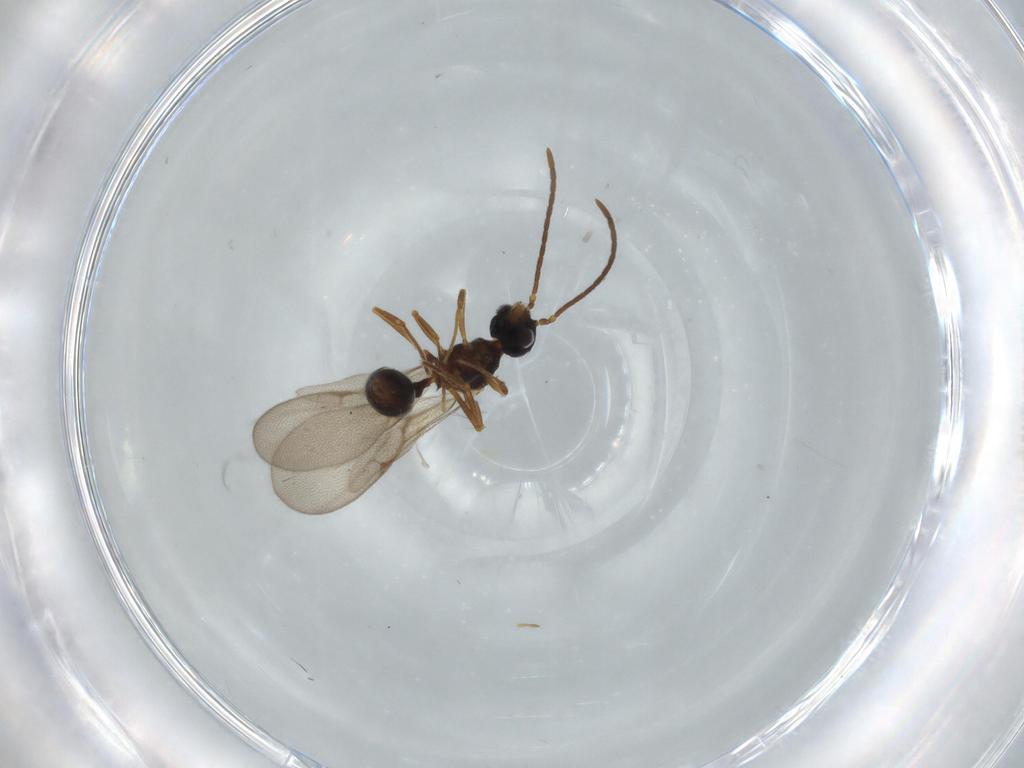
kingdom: Animalia
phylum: Arthropoda
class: Insecta
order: Hymenoptera
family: Formicidae
